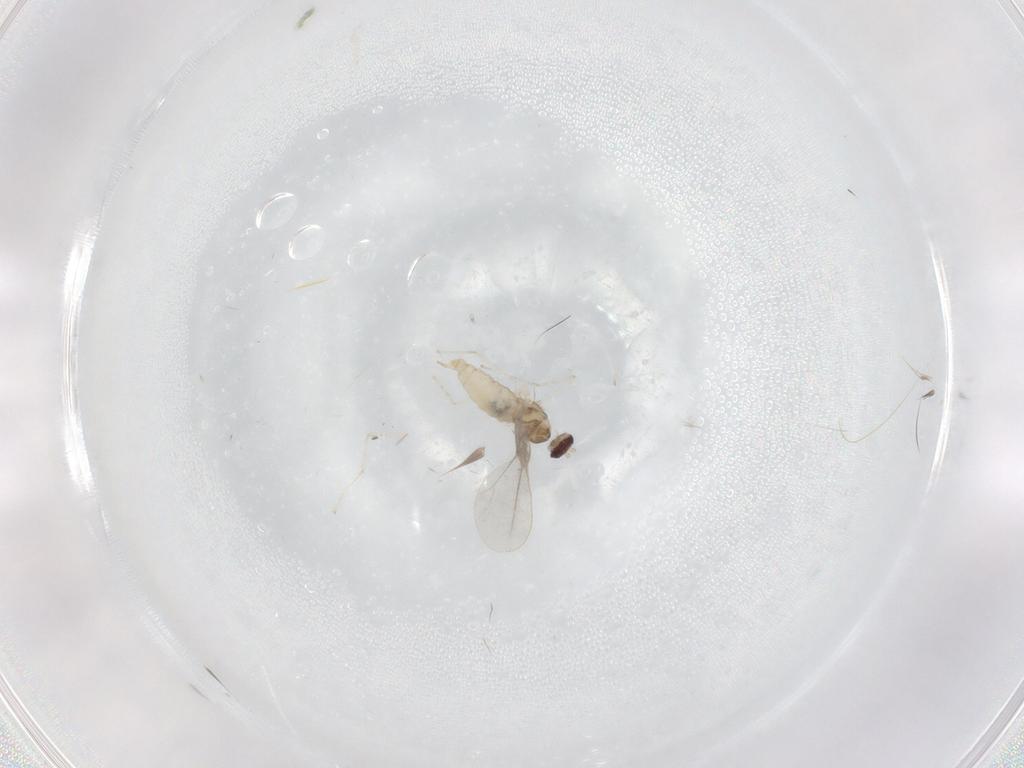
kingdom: Animalia
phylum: Arthropoda
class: Insecta
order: Diptera
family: Cecidomyiidae
